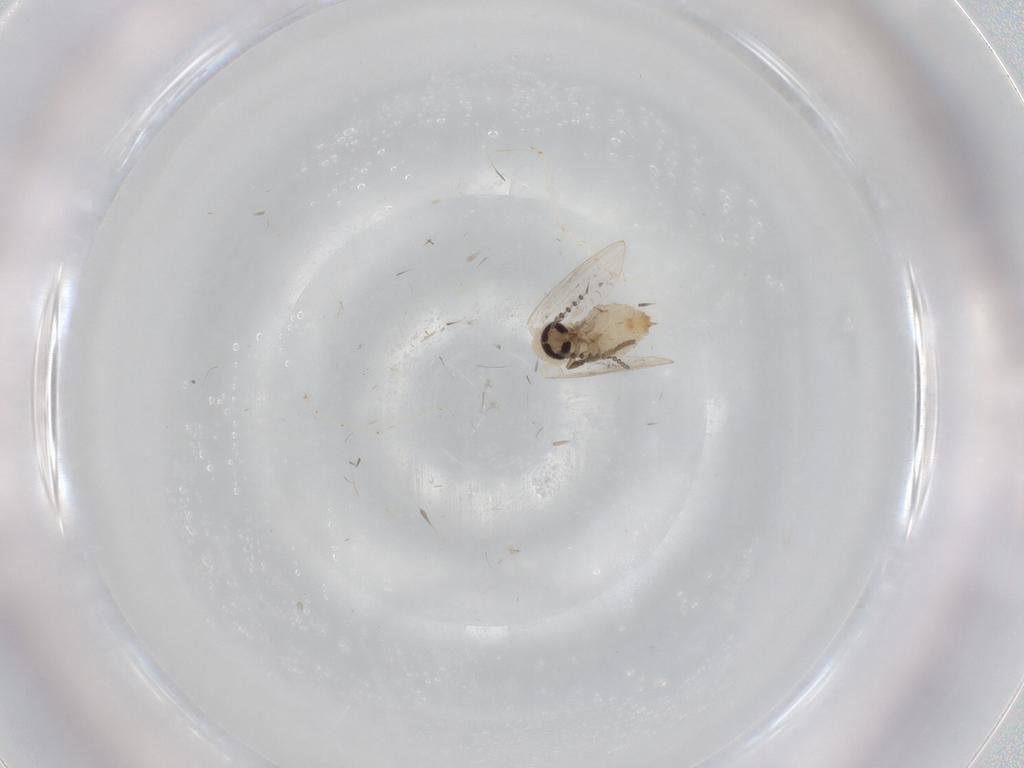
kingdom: Animalia
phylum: Arthropoda
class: Insecta
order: Diptera
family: Psychodidae
